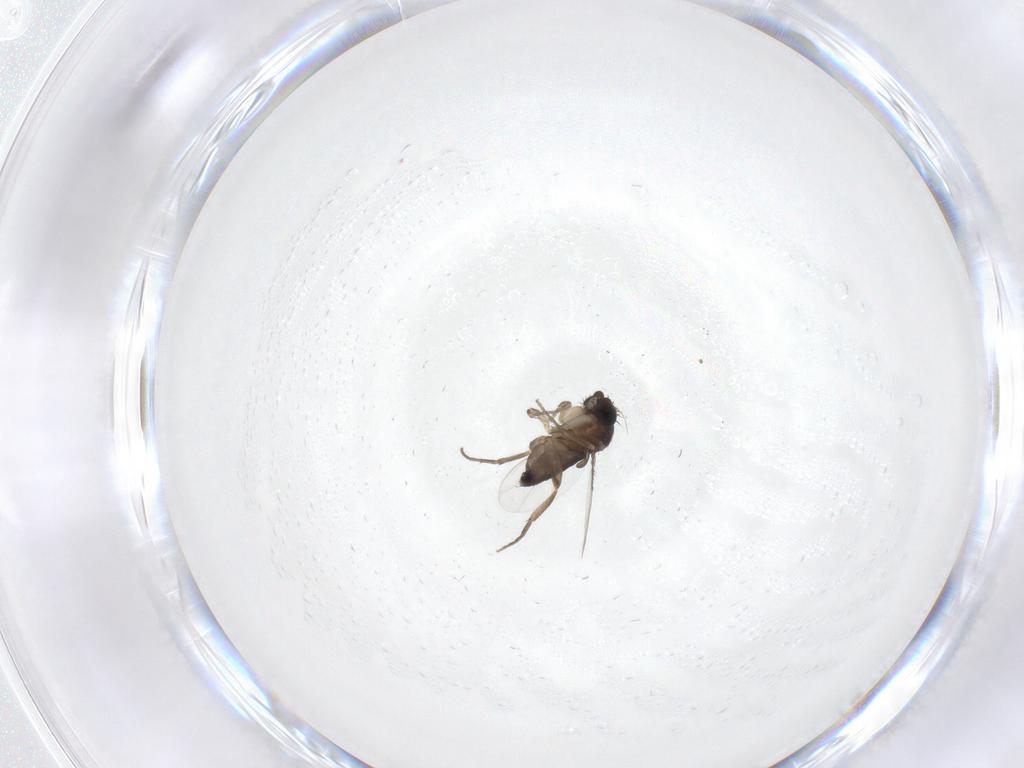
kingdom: Animalia
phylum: Arthropoda
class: Insecta
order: Diptera
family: Phoridae
